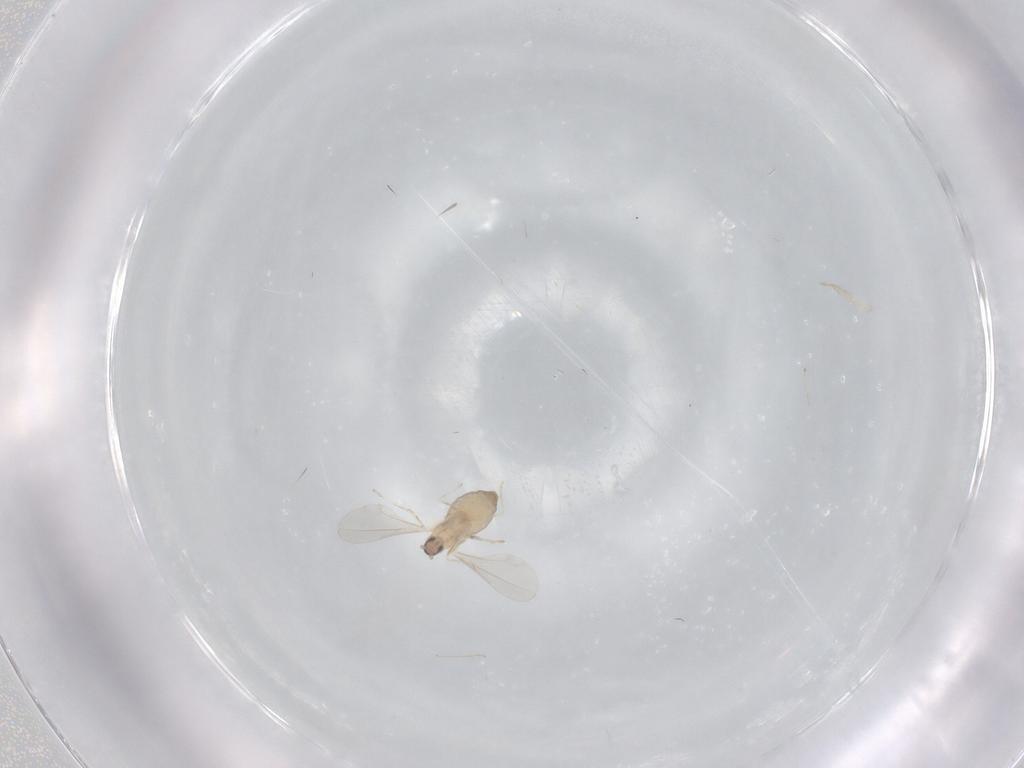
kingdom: Animalia
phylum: Arthropoda
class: Insecta
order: Diptera
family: Cecidomyiidae
